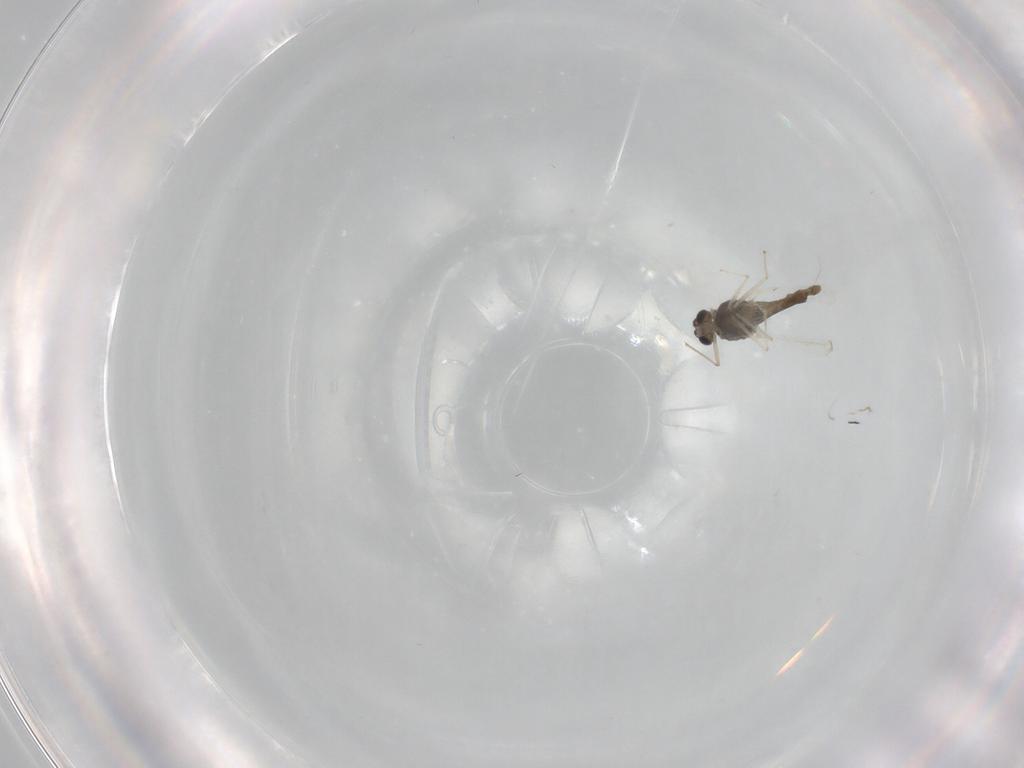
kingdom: Animalia
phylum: Arthropoda
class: Insecta
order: Diptera
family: Chironomidae
